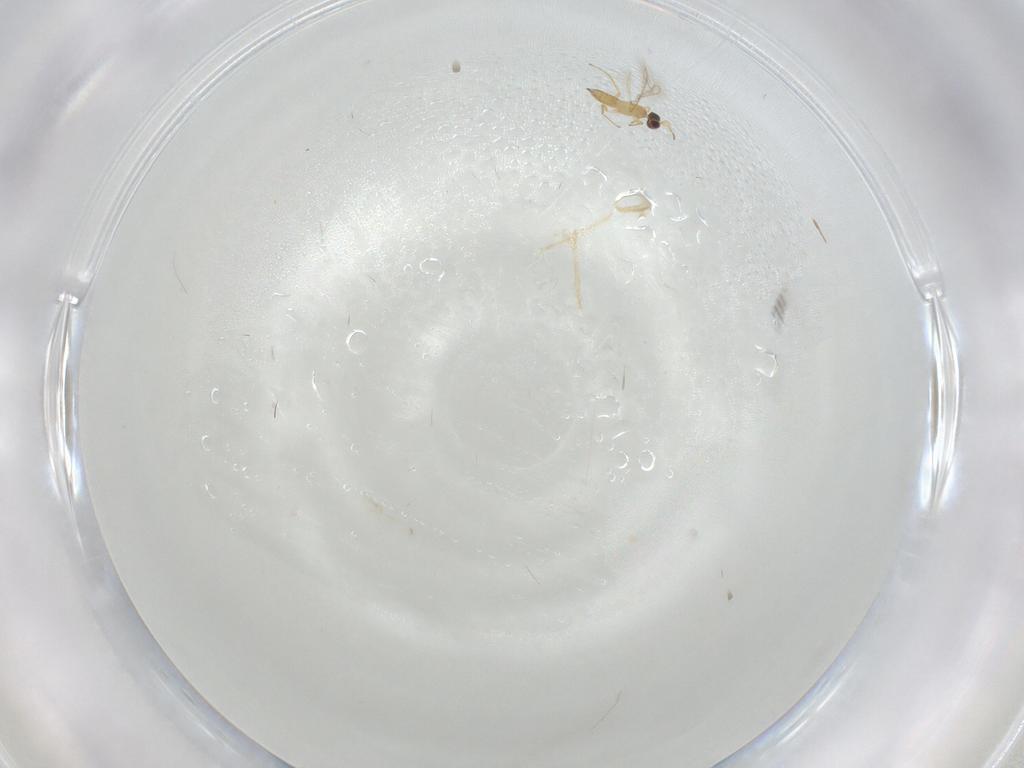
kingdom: Animalia
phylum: Arthropoda
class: Insecta
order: Hymenoptera
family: Mymaridae
